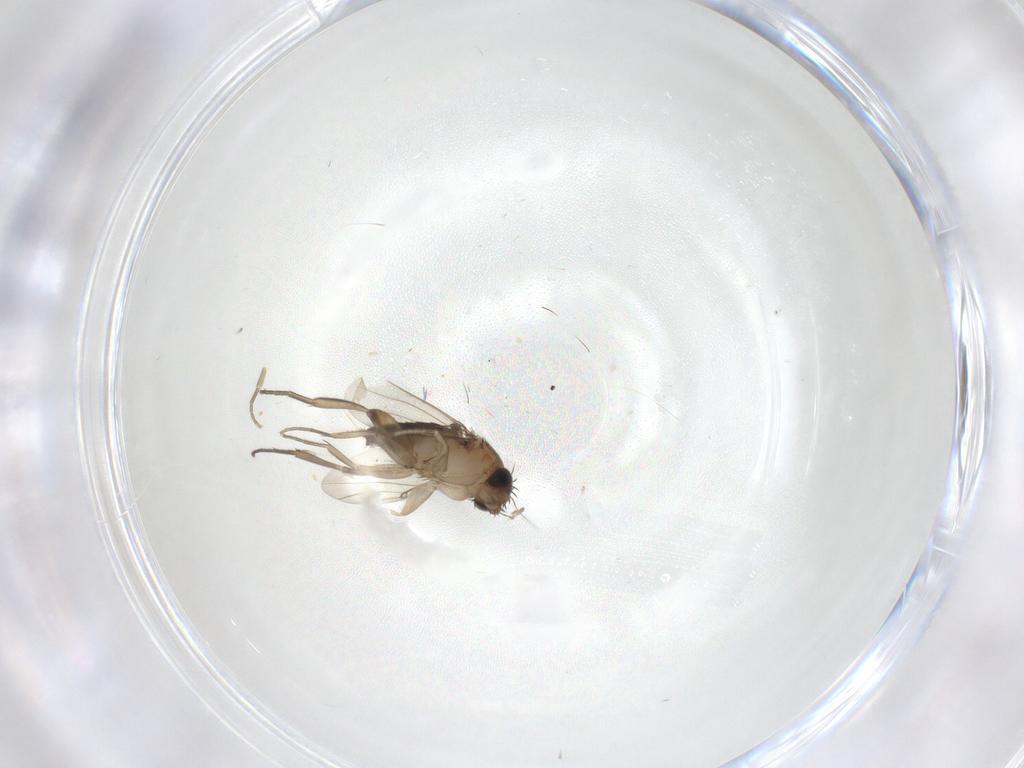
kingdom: Animalia
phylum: Arthropoda
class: Insecta
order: Diptera
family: Phoridae
